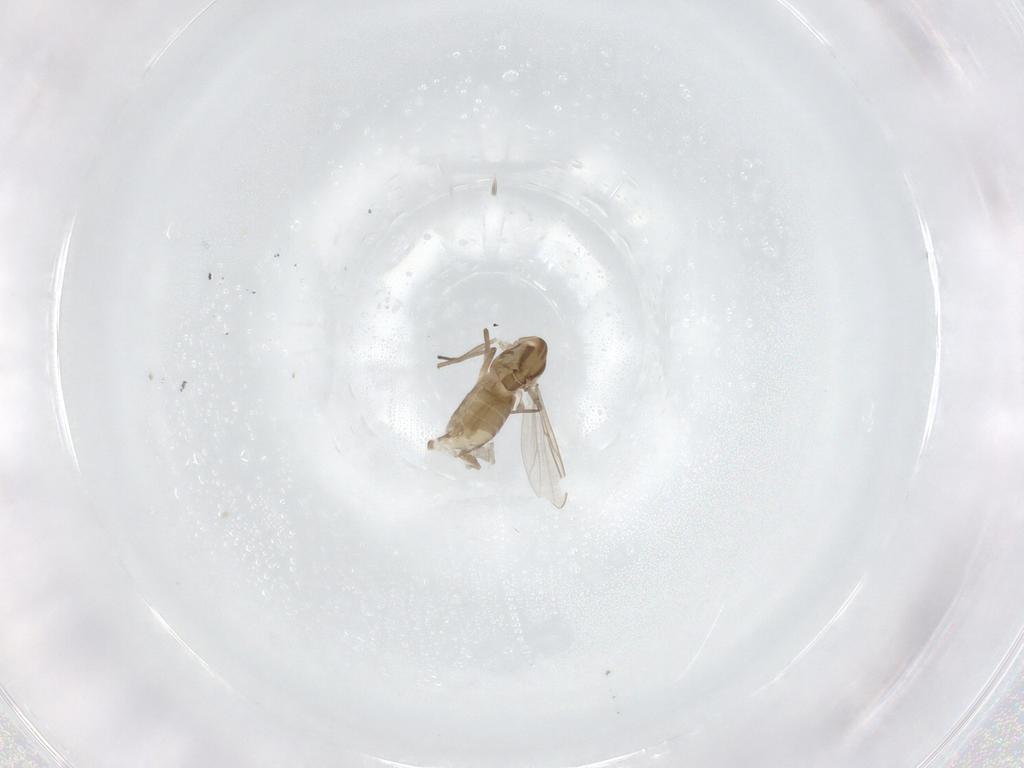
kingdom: Animalia
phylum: Arthropoda
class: Insecta
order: Diptera
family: Chironomidae
